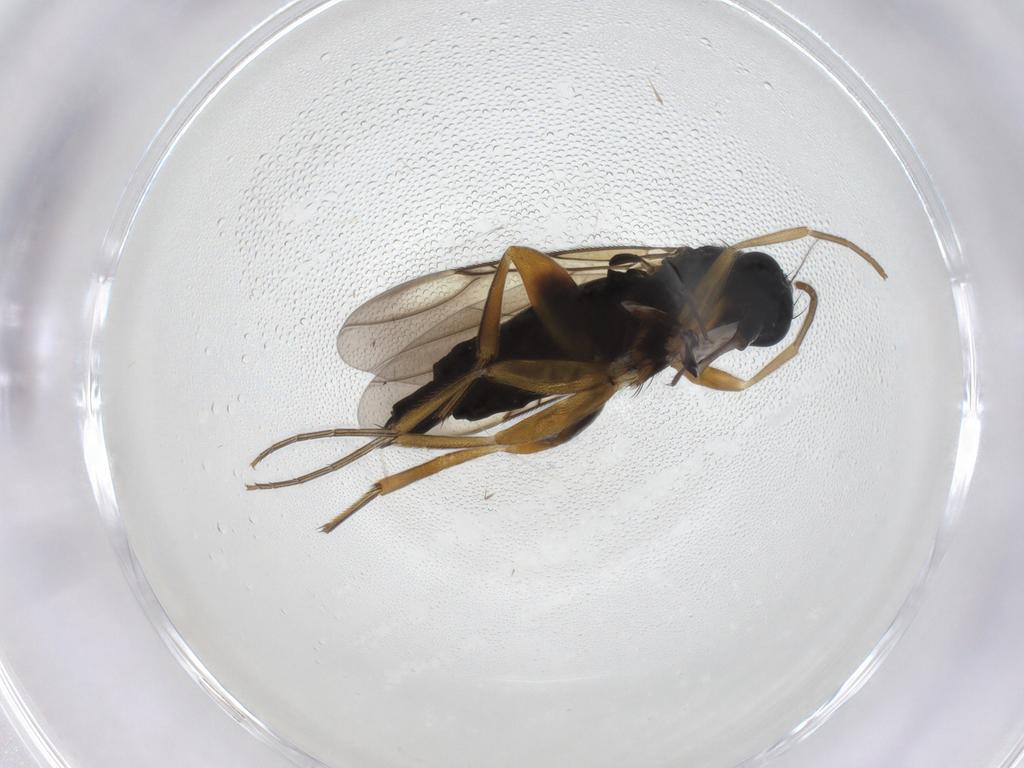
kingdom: Animalia
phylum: Arthropoda
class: Insecta
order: Diptera
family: Cecidomyiidae
